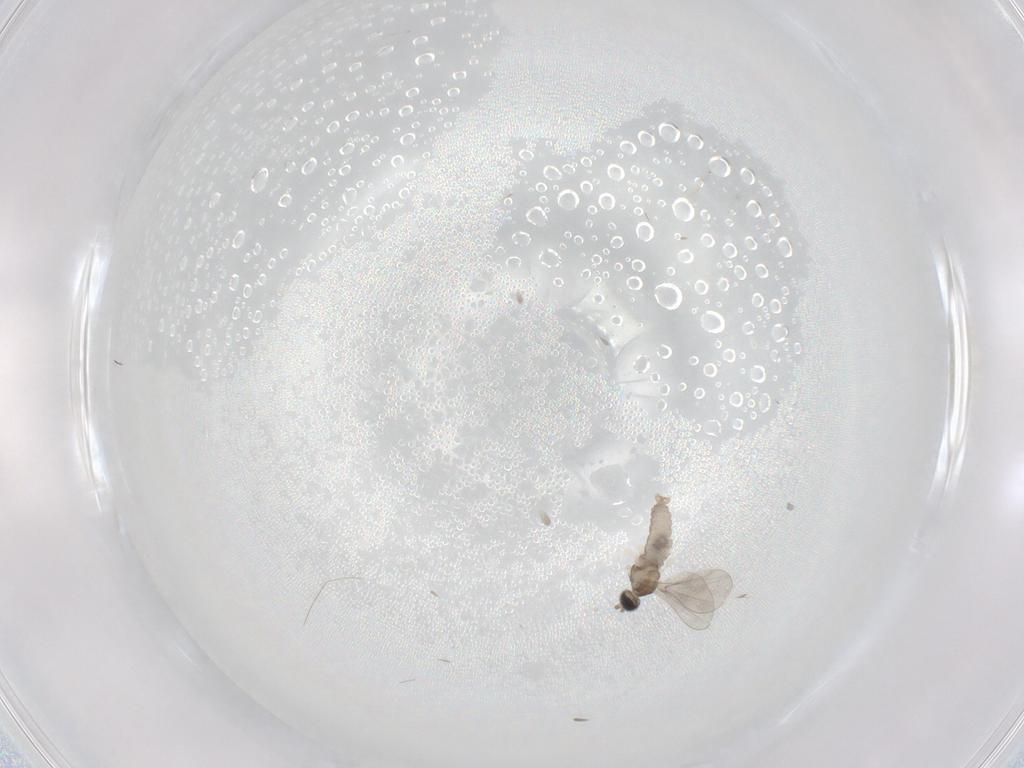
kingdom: Animalia
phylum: Arthropoda
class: Insecta
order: Diptera
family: Cecidomyiidae
